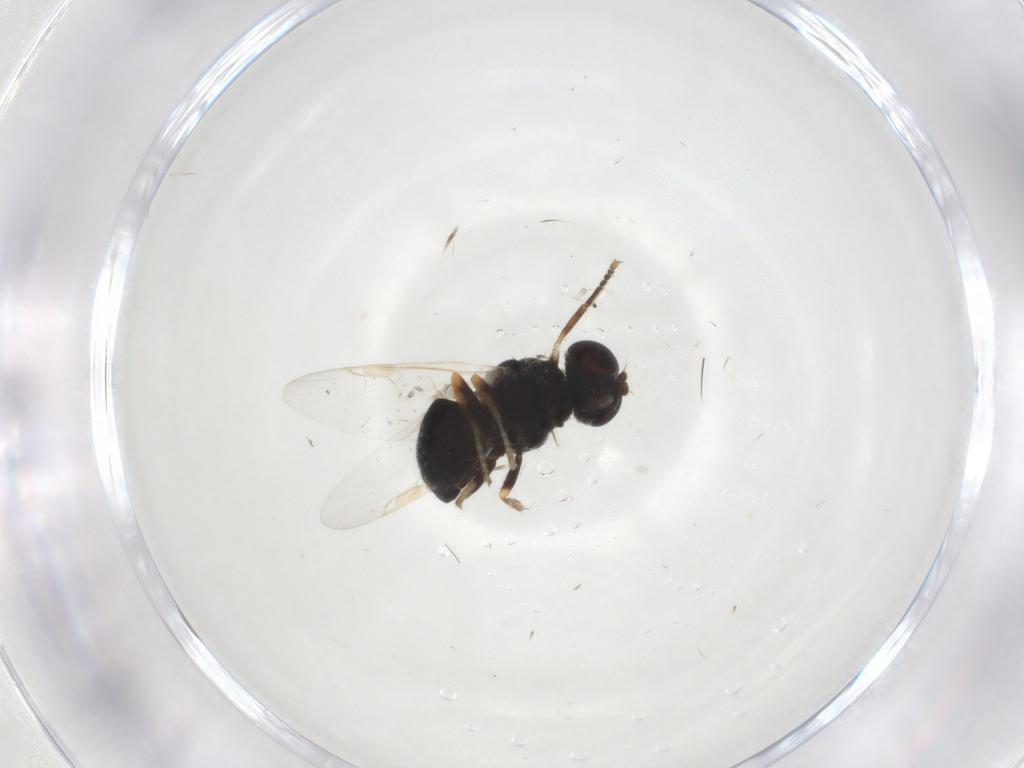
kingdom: Animalia
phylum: Arthropoda
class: Insecta
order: Diptera
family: Stratiomyidae
